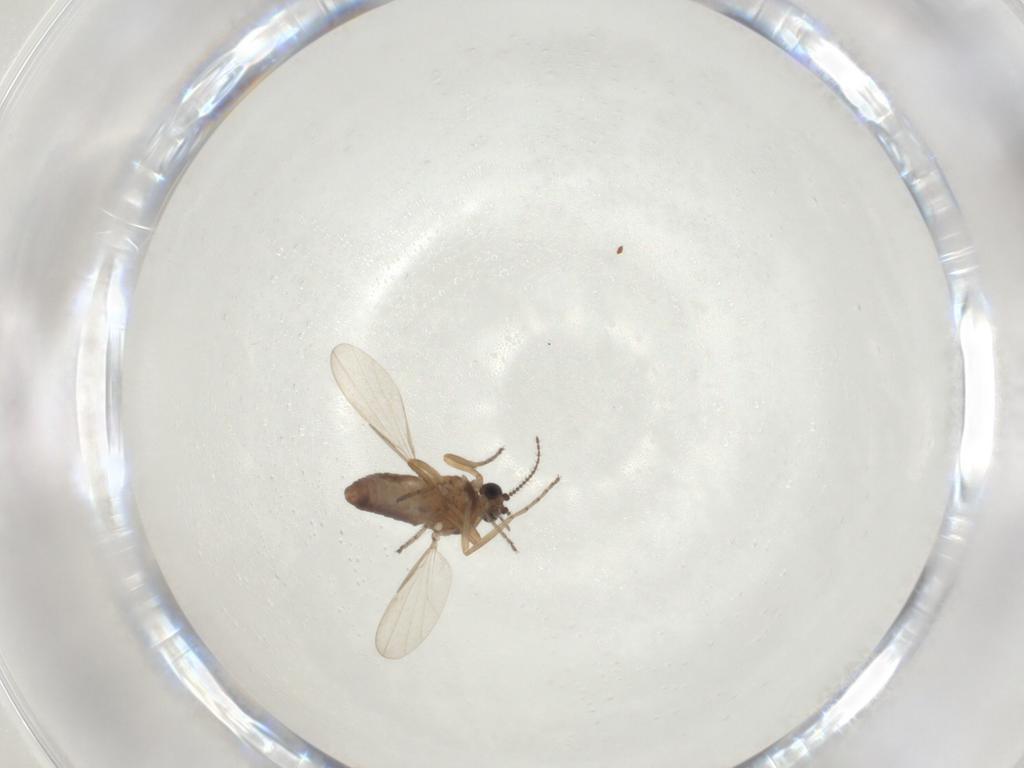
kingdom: Animalia
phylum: Arthropoda
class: Insecta
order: Diptera
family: Ceratopogonidae
